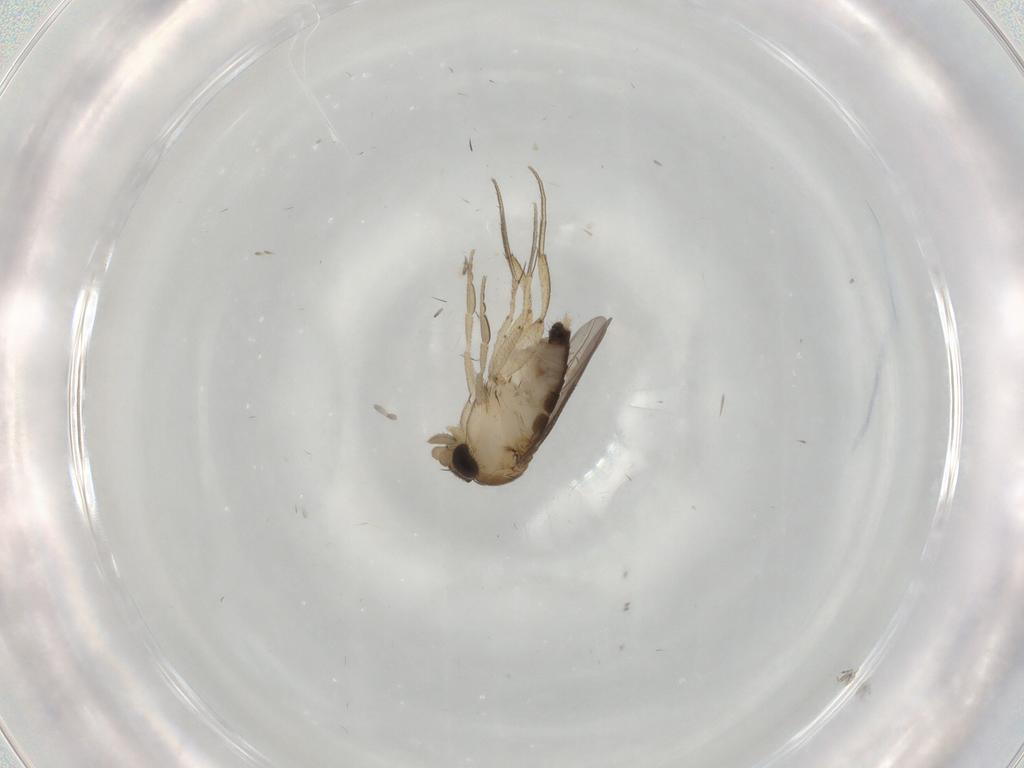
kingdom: Animalia
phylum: Arthropoda
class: Insecta
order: Diptera
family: Phoridae
